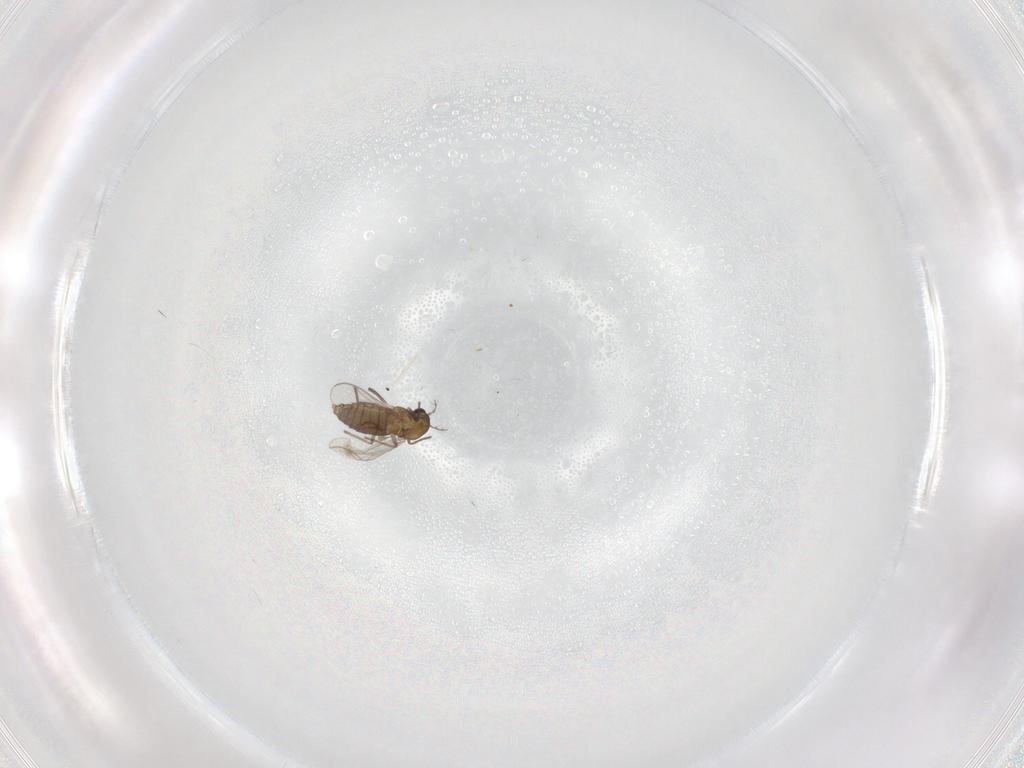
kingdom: Animalia
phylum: Arthropoda
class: Insecta
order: Diptera
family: Chironomidae
